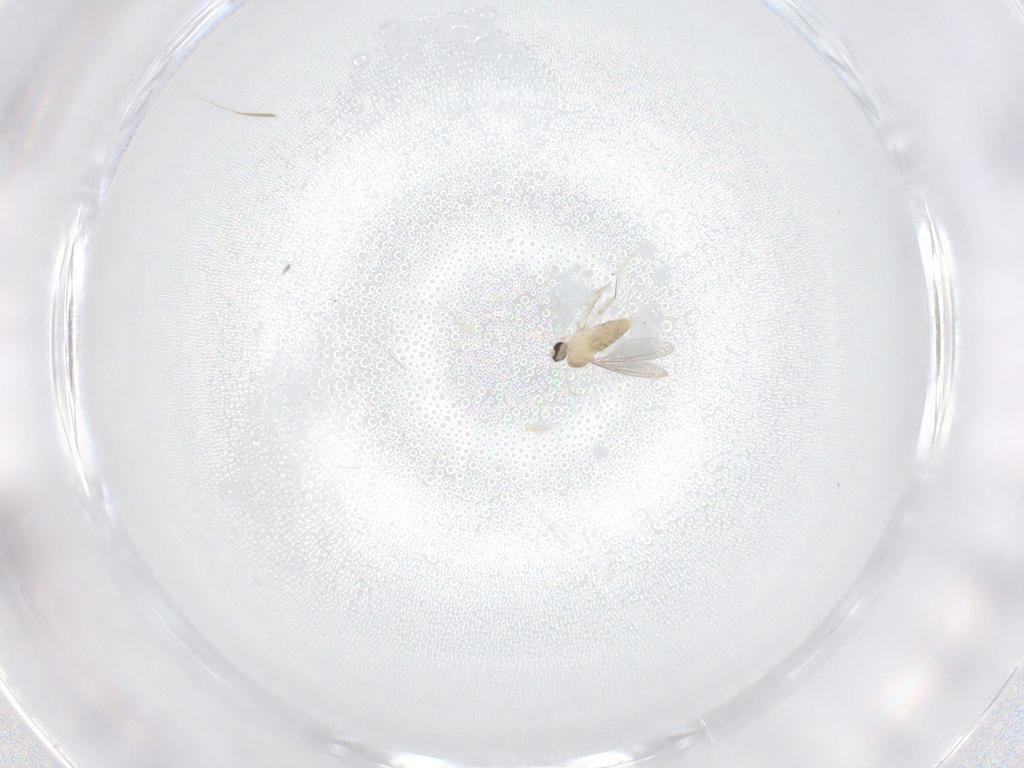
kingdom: Animalia
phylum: Arthropoda
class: Insecta
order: Diptera
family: Cecidomyiidae
